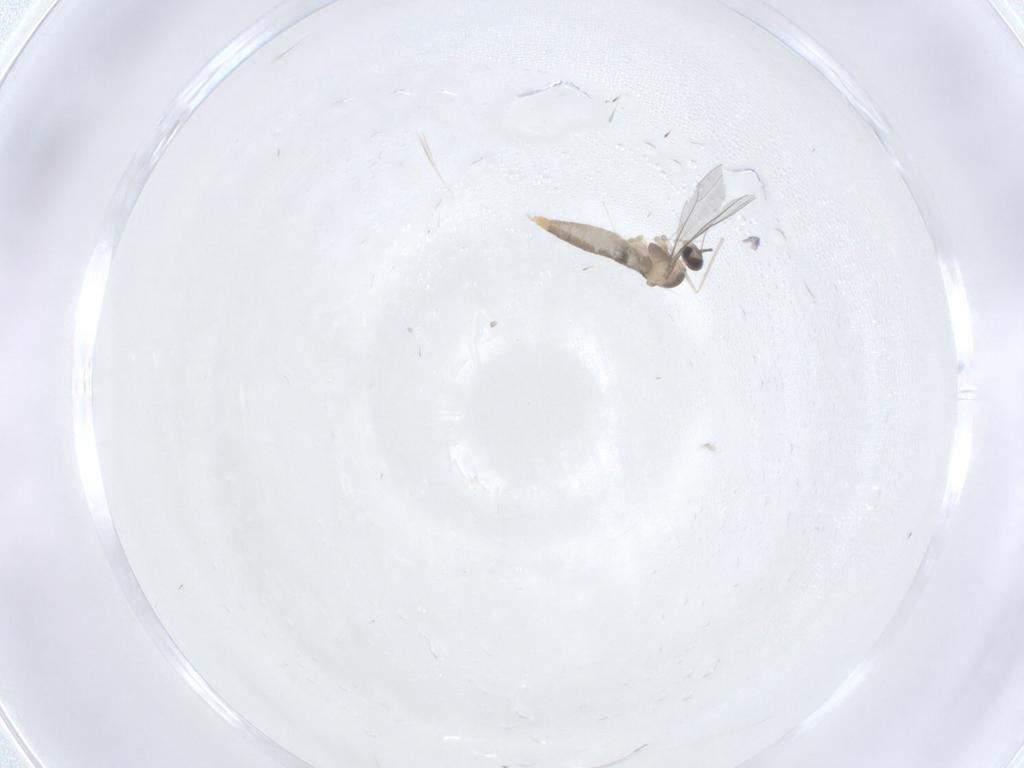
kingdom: Animalia
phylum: Arthropoda
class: Insecta
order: Diptera
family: Cecidomyiidae
